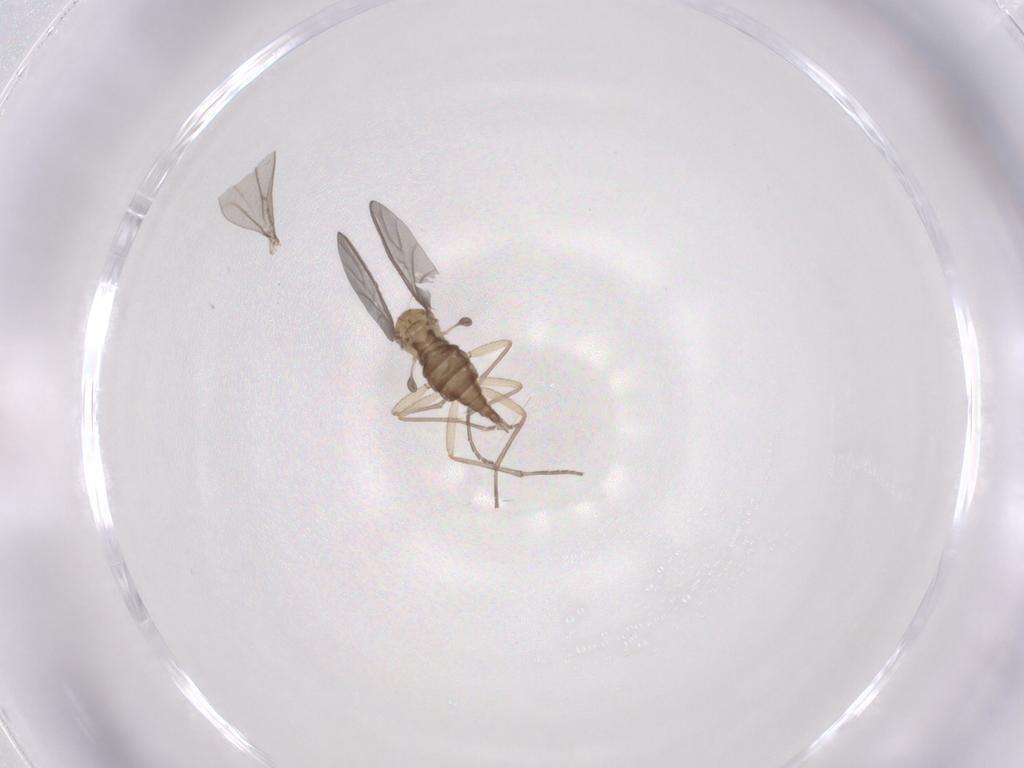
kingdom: Animalia
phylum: Arthropoda
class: Insecta
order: Diptera
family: Sciaridae
